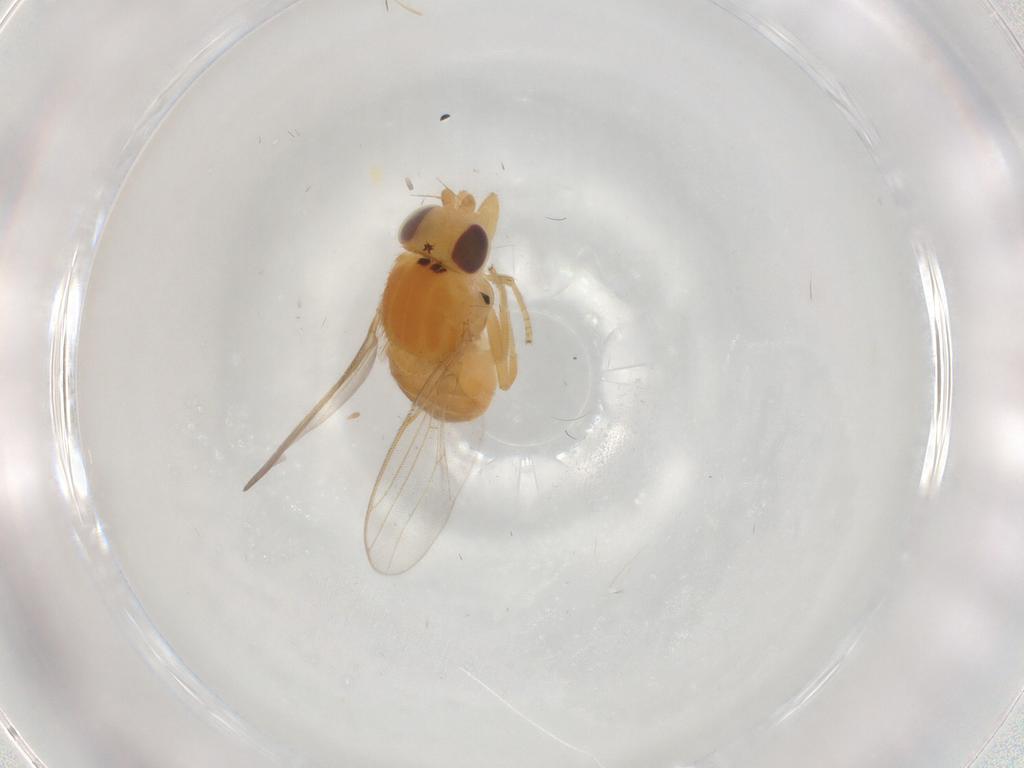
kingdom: Animalia
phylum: Arthropoda
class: Insecta
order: Diptera
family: Chloropidae
